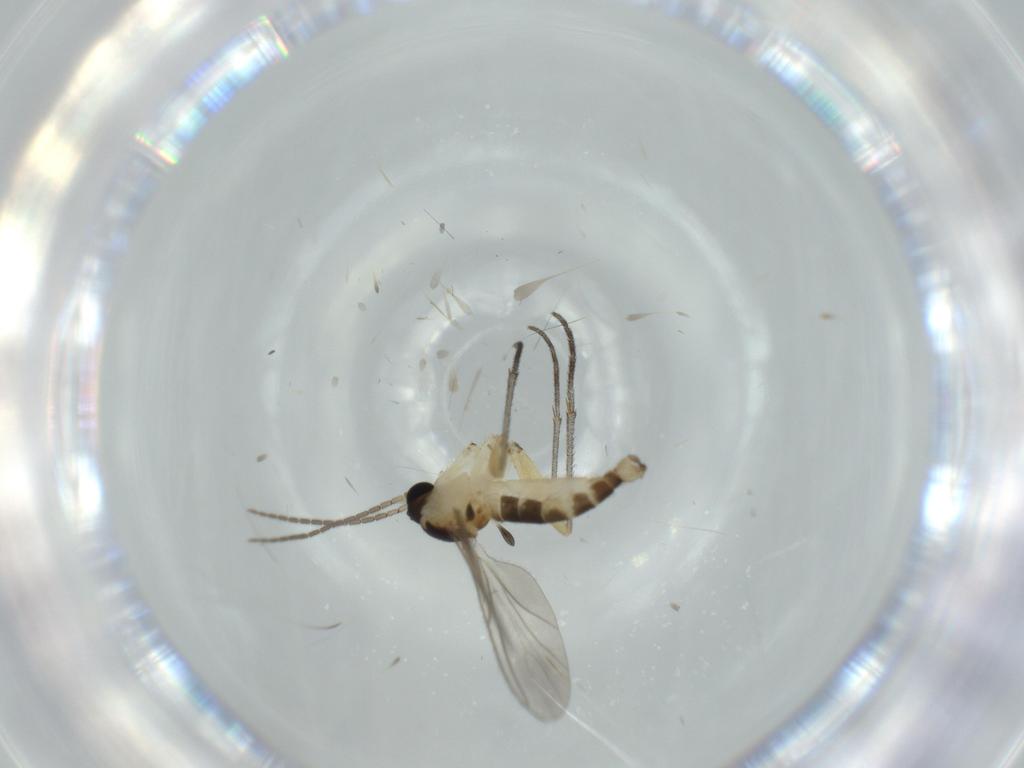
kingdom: Animalia
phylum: Arthropoda
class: Insecta
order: Diptera
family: Sciaridae
